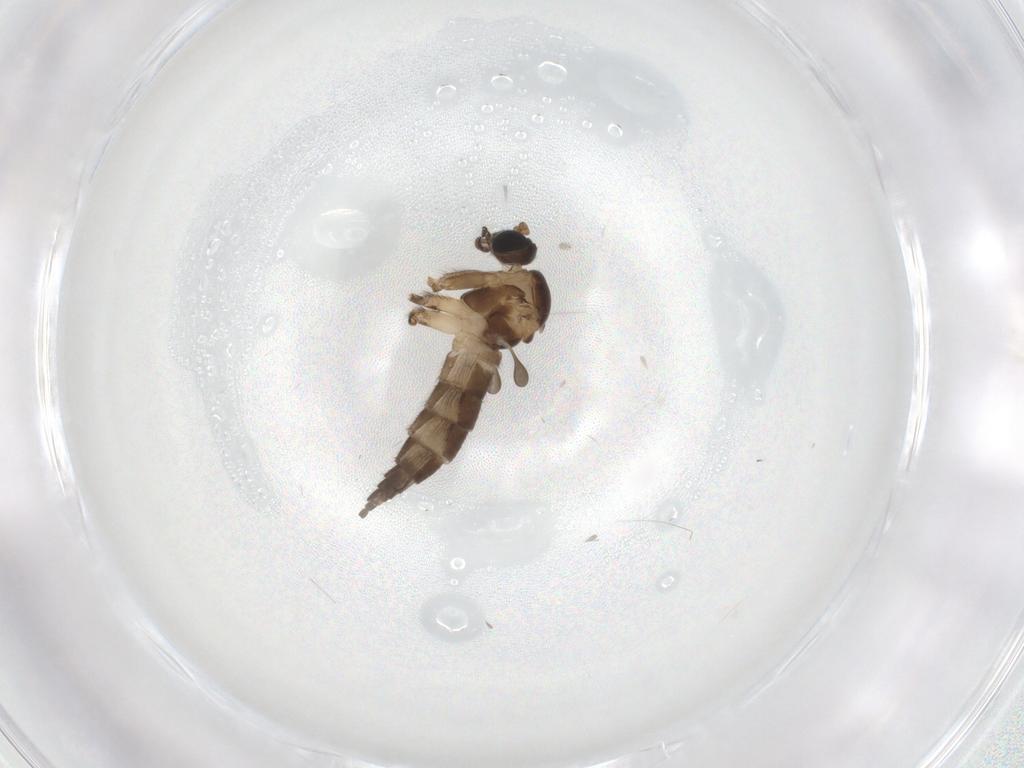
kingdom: Animalia
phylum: Arthropoda
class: Insecta
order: Diptera
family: Sciaridae
